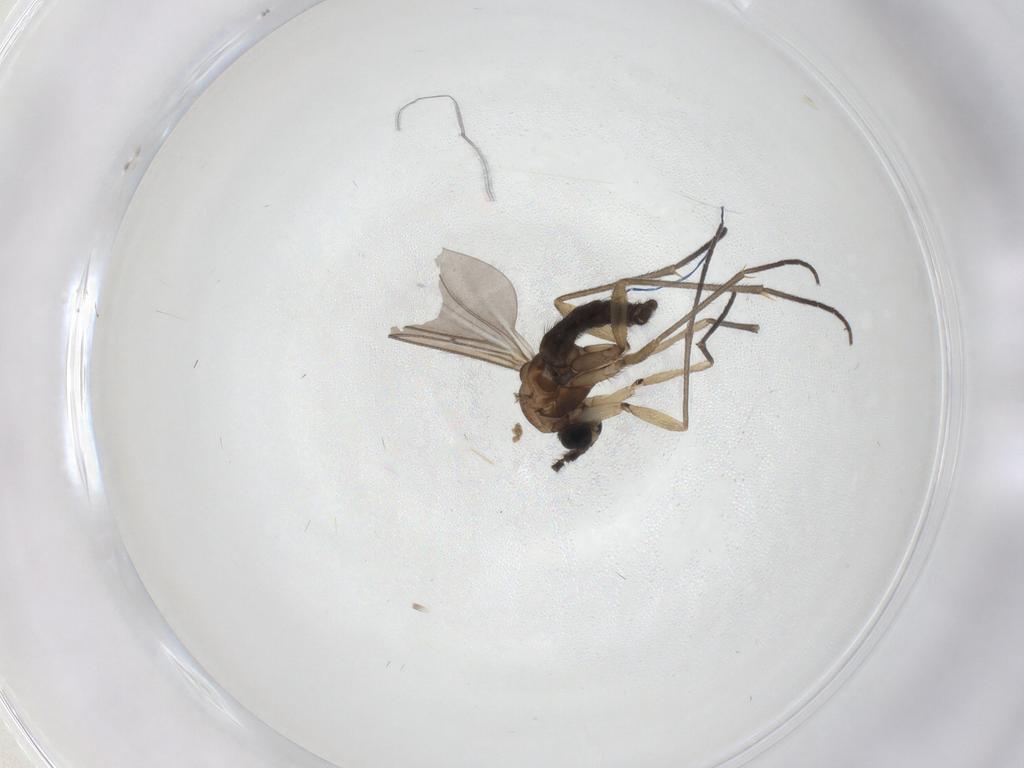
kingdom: Animalia
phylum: Arthropoda
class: Insecta
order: Diptera
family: Sciaridae
